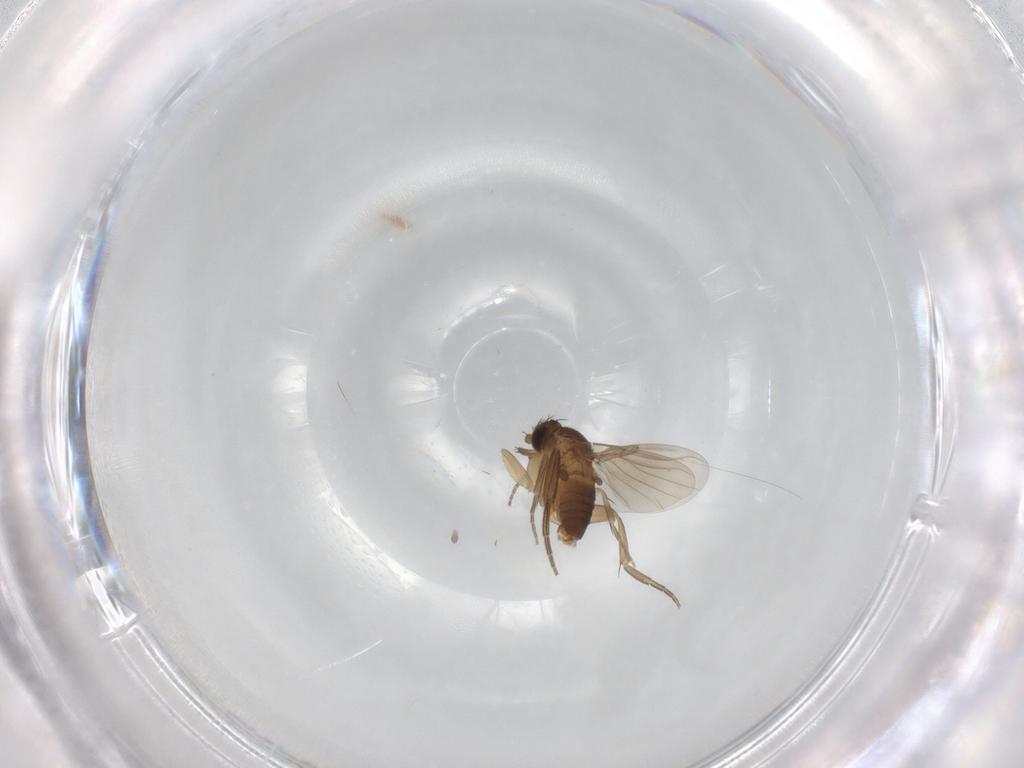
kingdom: Animalia
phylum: Arthropoda
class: Insecta
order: Diptera
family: Phoridae
